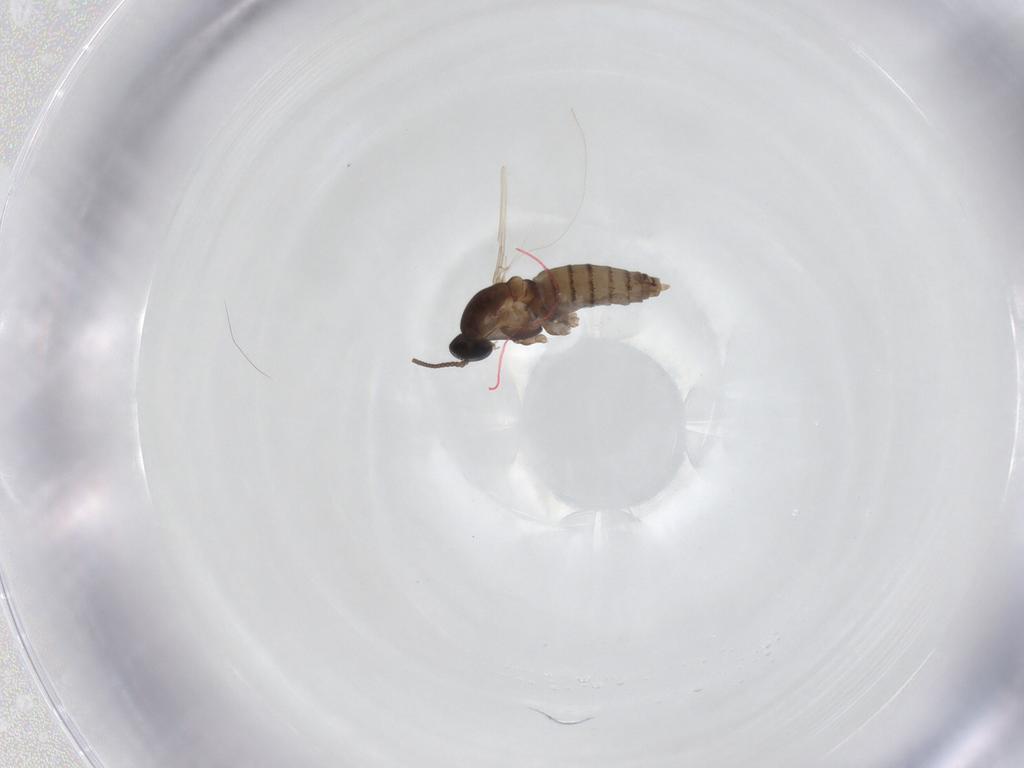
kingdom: Animalia
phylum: Arthropoda
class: Insecta
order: Diptera
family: Cecidomyiidae
